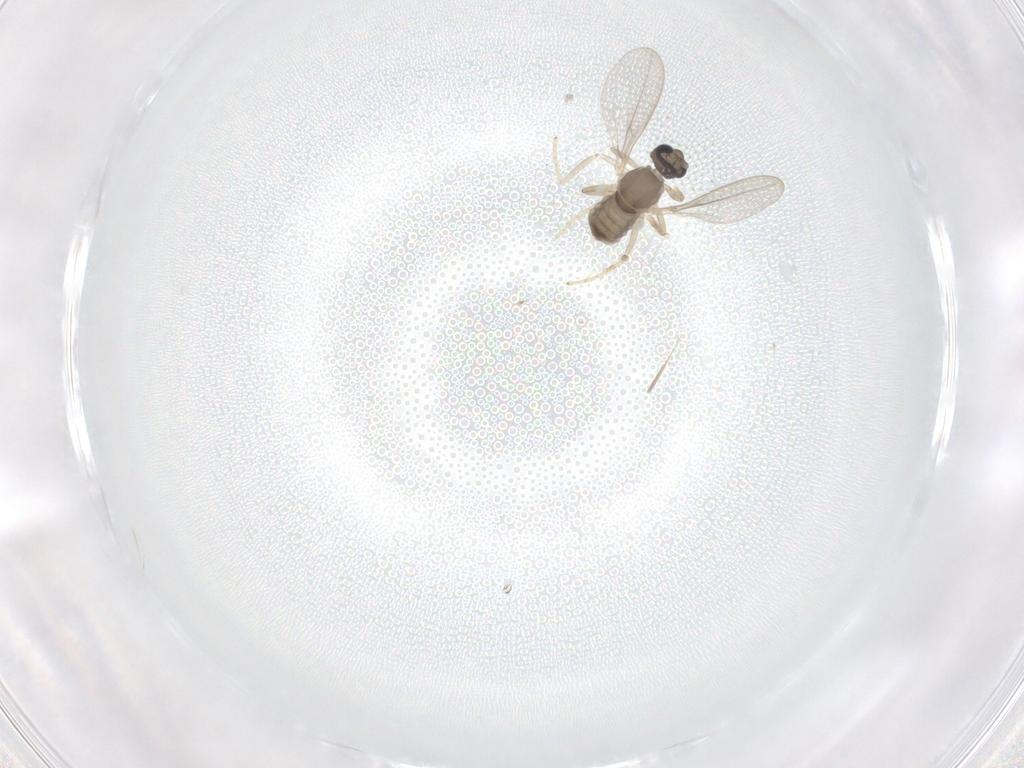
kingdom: Animalia
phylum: Arthropoda
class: Insecta
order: Diptera
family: Cecidomyiidae
